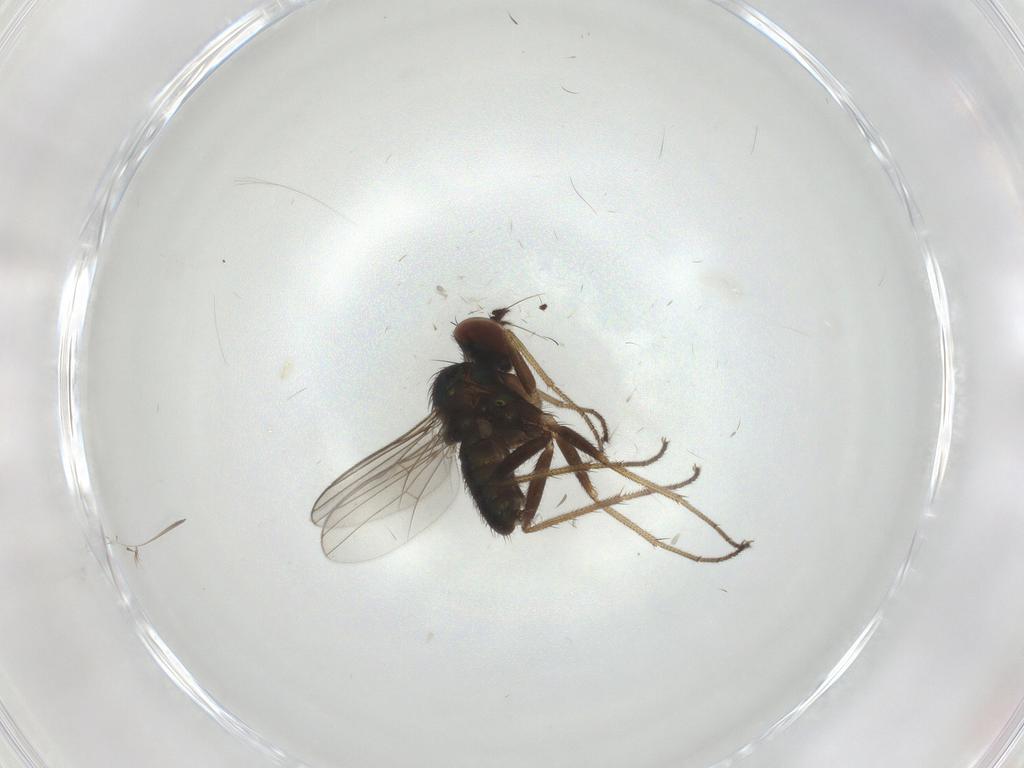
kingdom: Animalia
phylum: Arthropoda
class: Insecta
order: Diptera
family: Dolichopodidae
